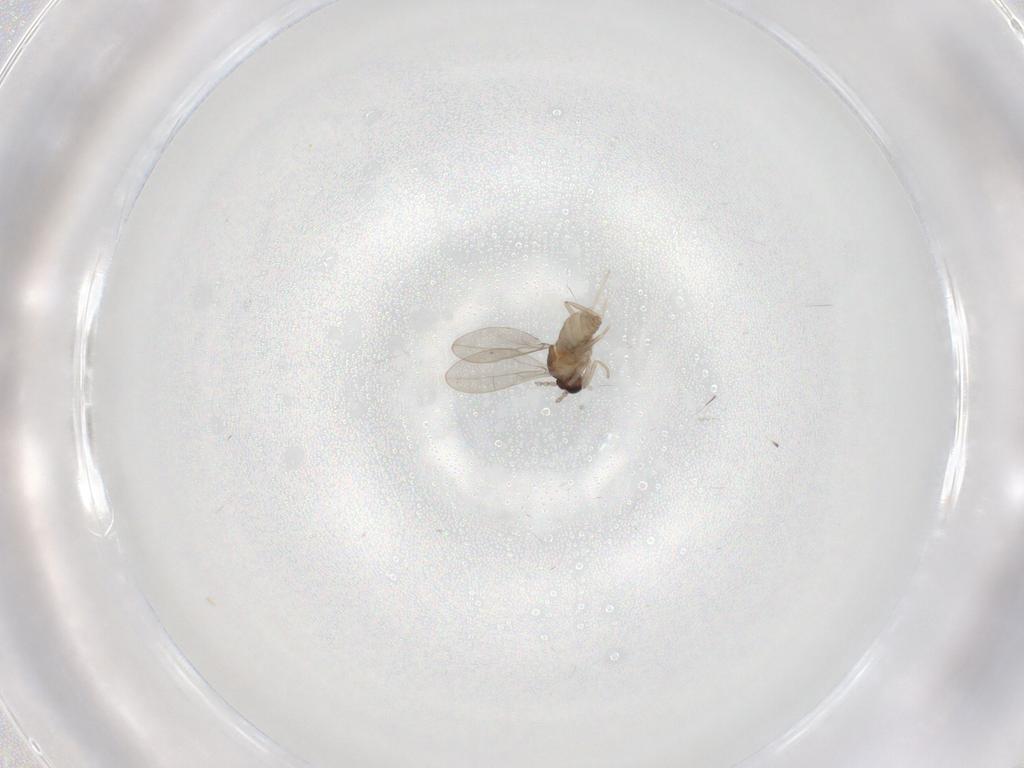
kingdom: Animalia
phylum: Arthropoda
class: Insecta
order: Diptera
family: Cecidomyiidae
